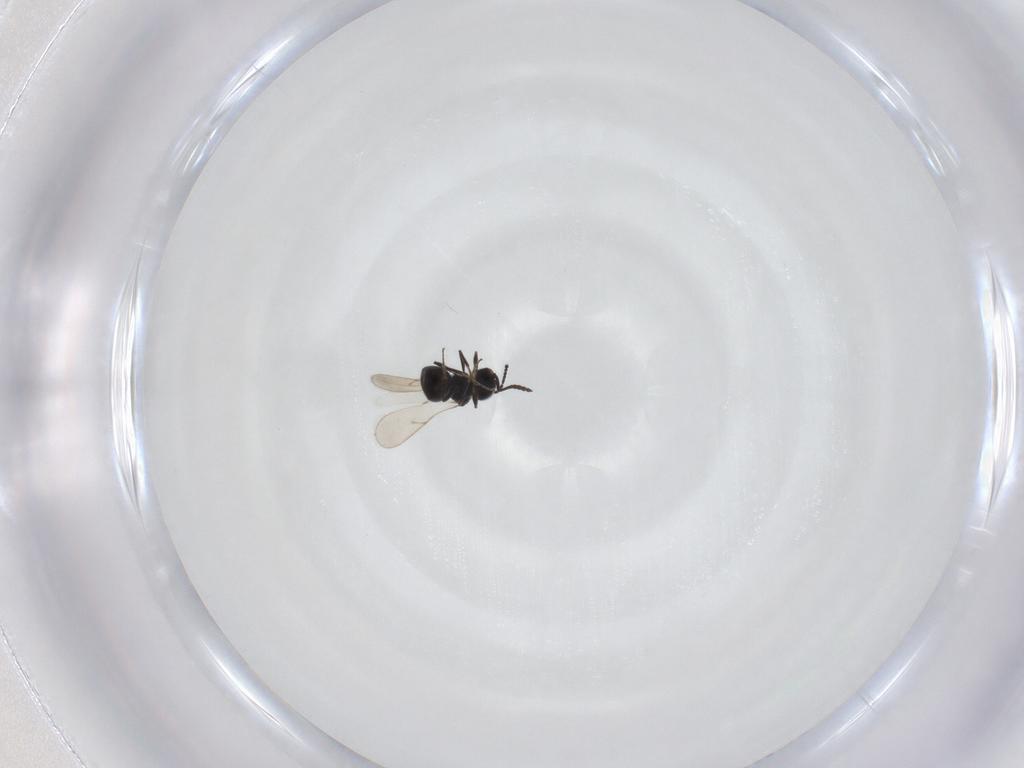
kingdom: Animalia
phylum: Arthropoda
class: Insecta
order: Hymenoptera
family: Scelionidae
